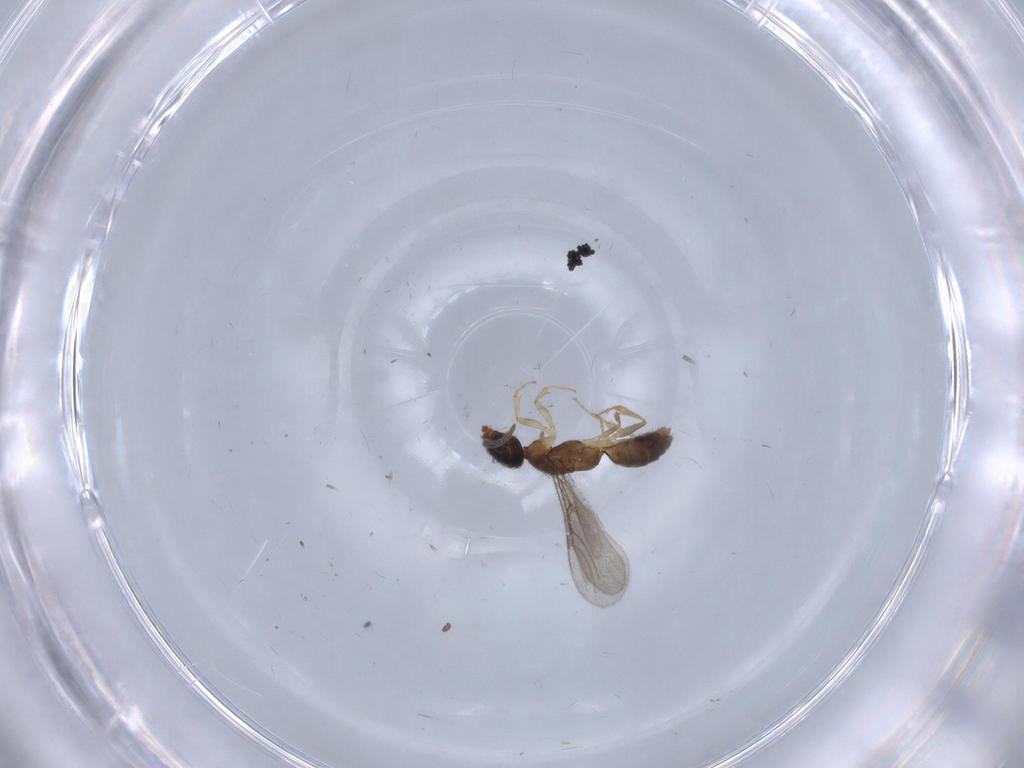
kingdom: Animalia
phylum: Arthropoda
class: Insecta
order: Hymenoptera
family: Bethylidae
